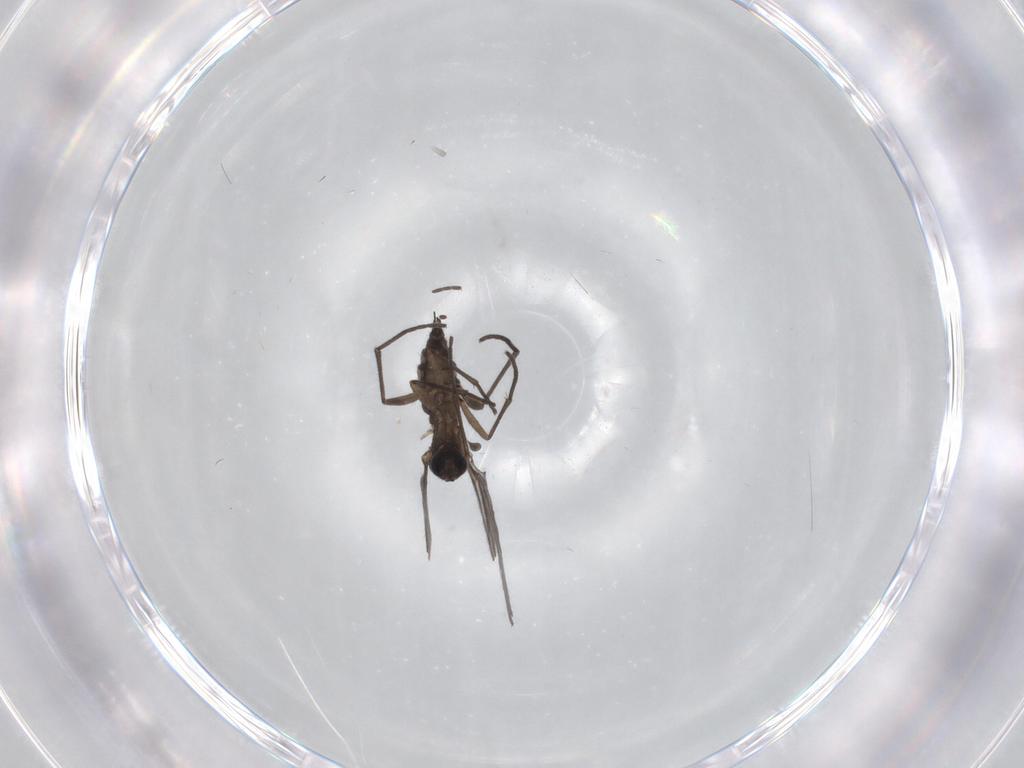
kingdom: Animalia
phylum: Arthropoda
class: Insecta
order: Diptera
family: Sciaridae
